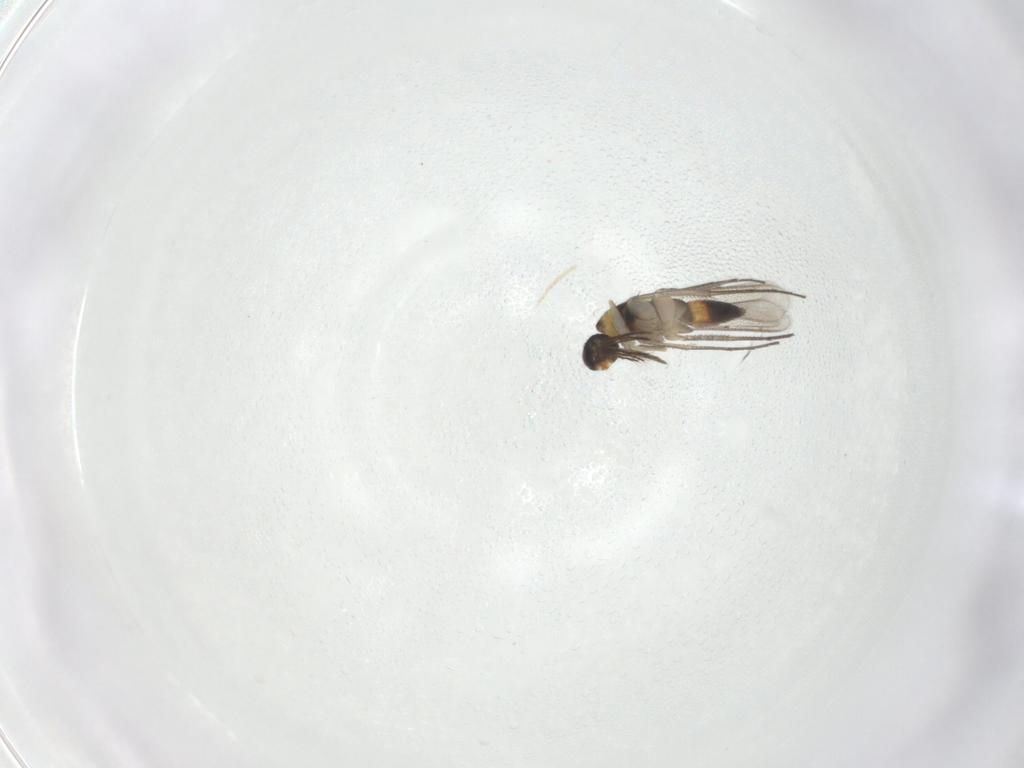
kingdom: Animalia
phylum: Arthropoda
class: Insecta
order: Hymenoptera
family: Eulophidae
